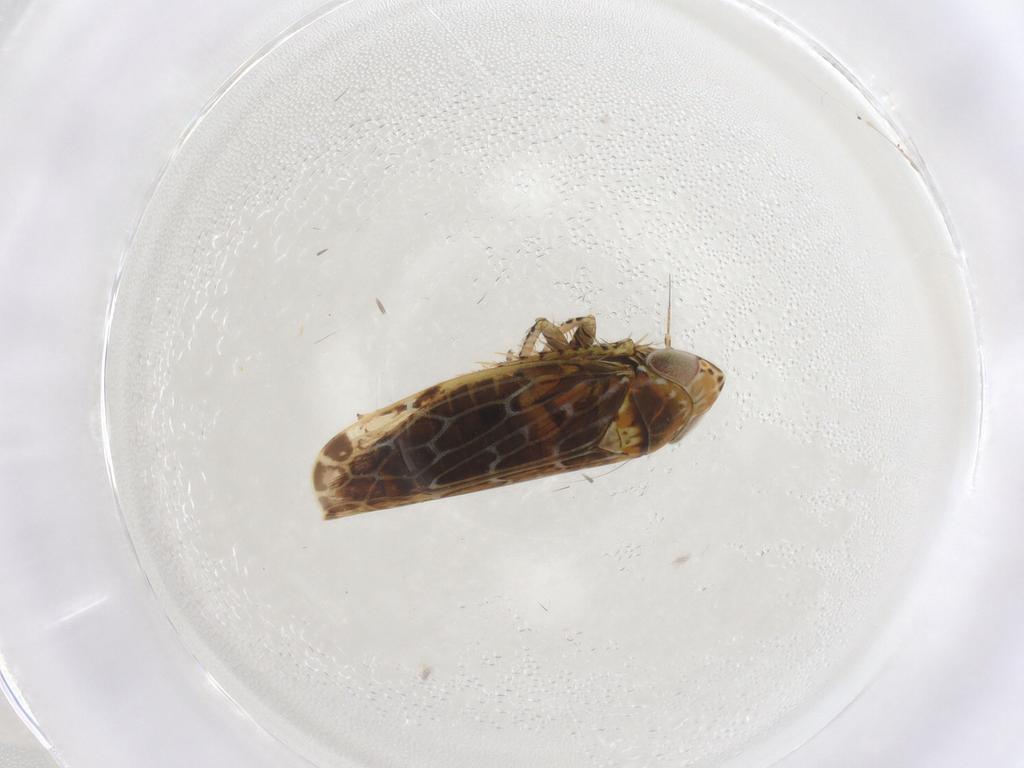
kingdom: Animalia
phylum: Arthropoda
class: Insecta
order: Hemiptera
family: Cicadellidae
